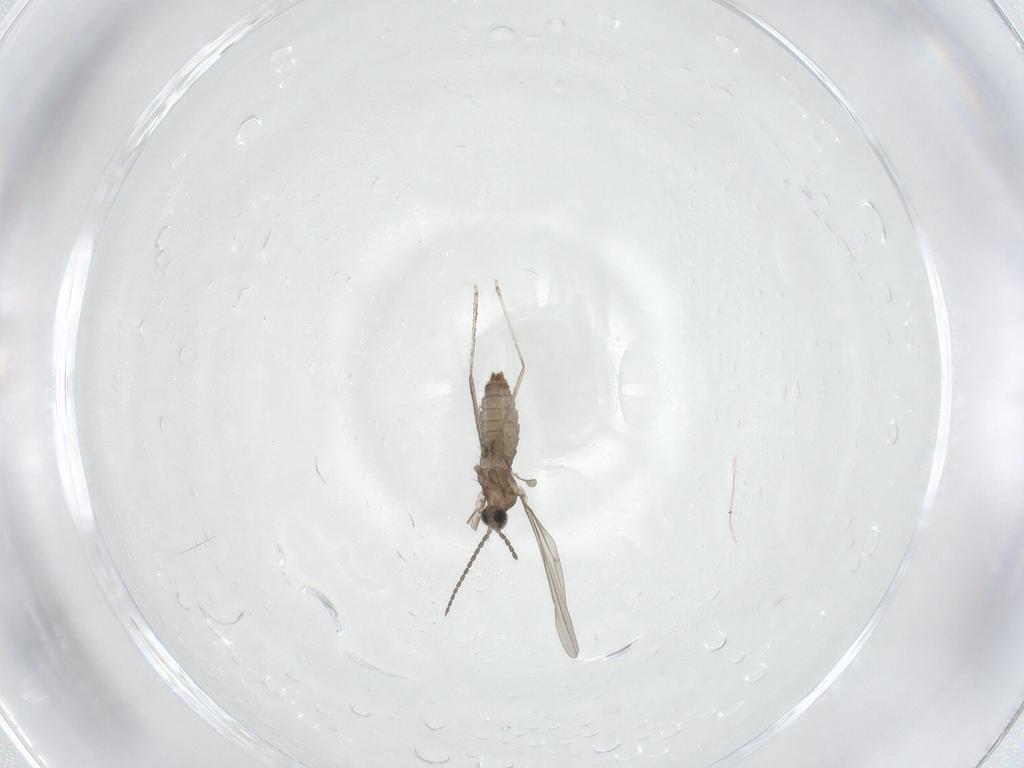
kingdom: Animalia
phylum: Arthropoda
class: Insecta
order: Diptera
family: Cecidomyiidae
